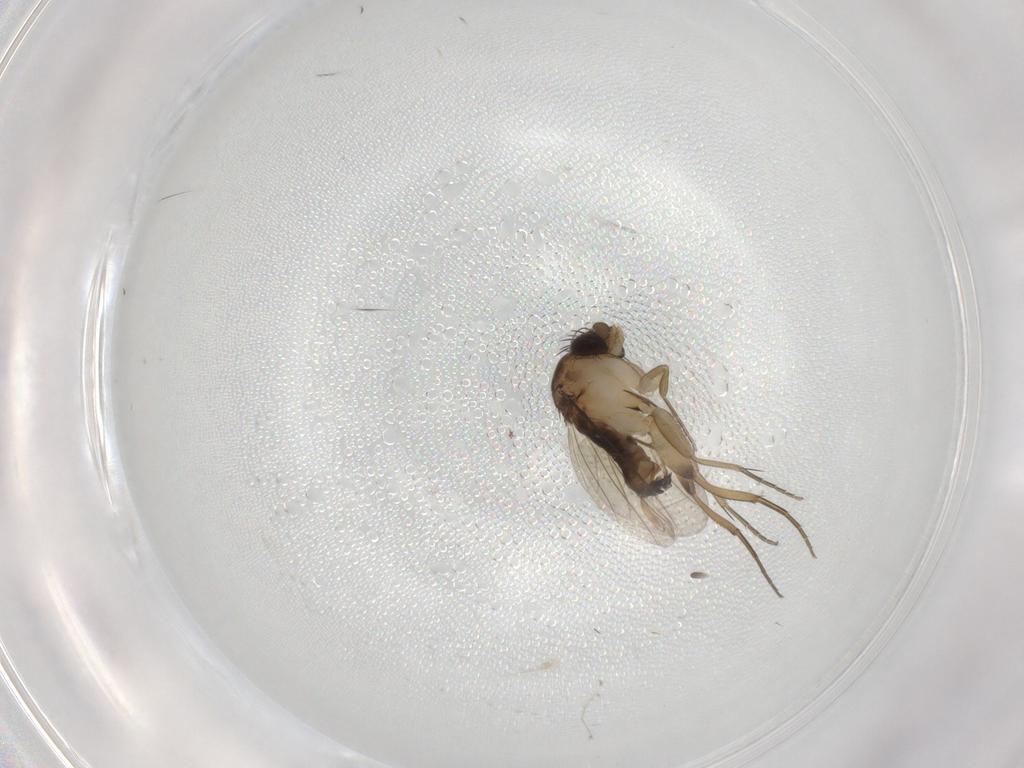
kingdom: Animalia
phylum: Arthropoda
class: Insecta
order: Diptera
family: Phoridae
